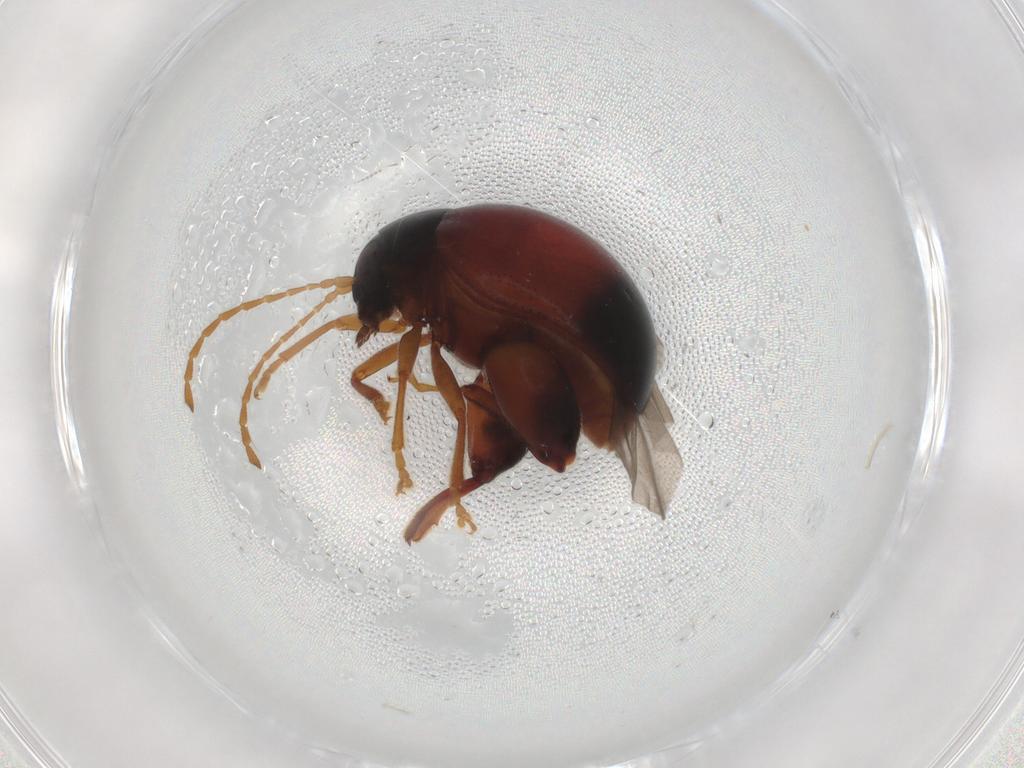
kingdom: Animalia
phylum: Arthropoda
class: Insecta
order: Coleoptera
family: Chrysomelidae
